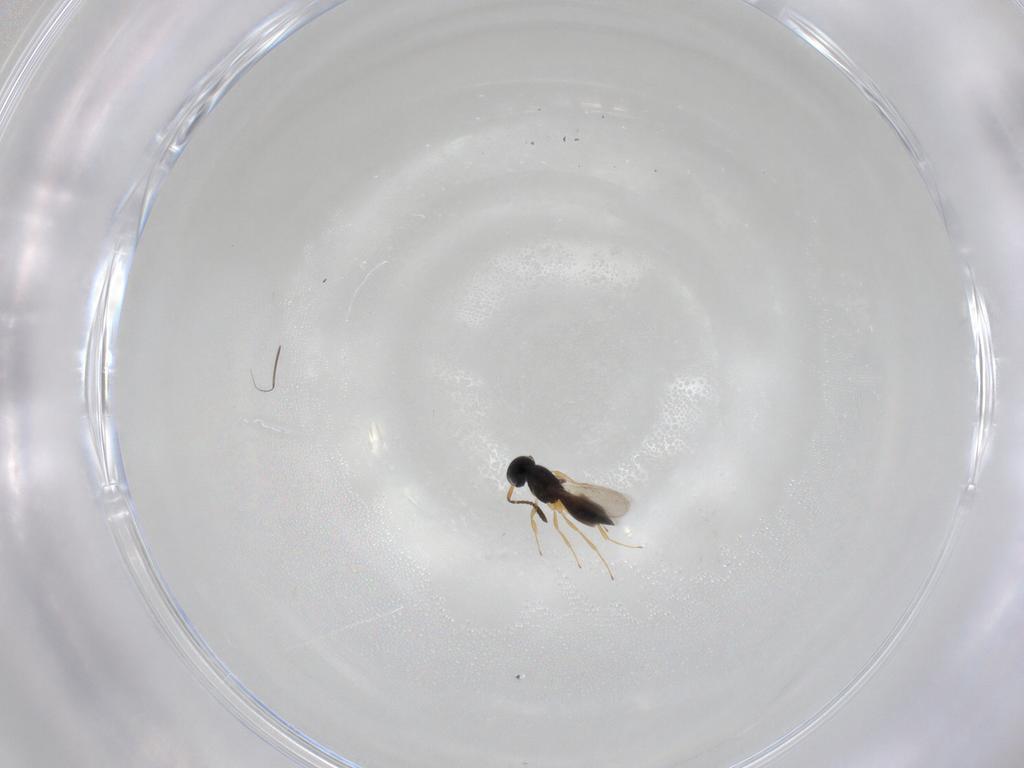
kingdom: Animalia
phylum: Arthropoda
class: Insecta
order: Hymenoptera
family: Scelionidae
